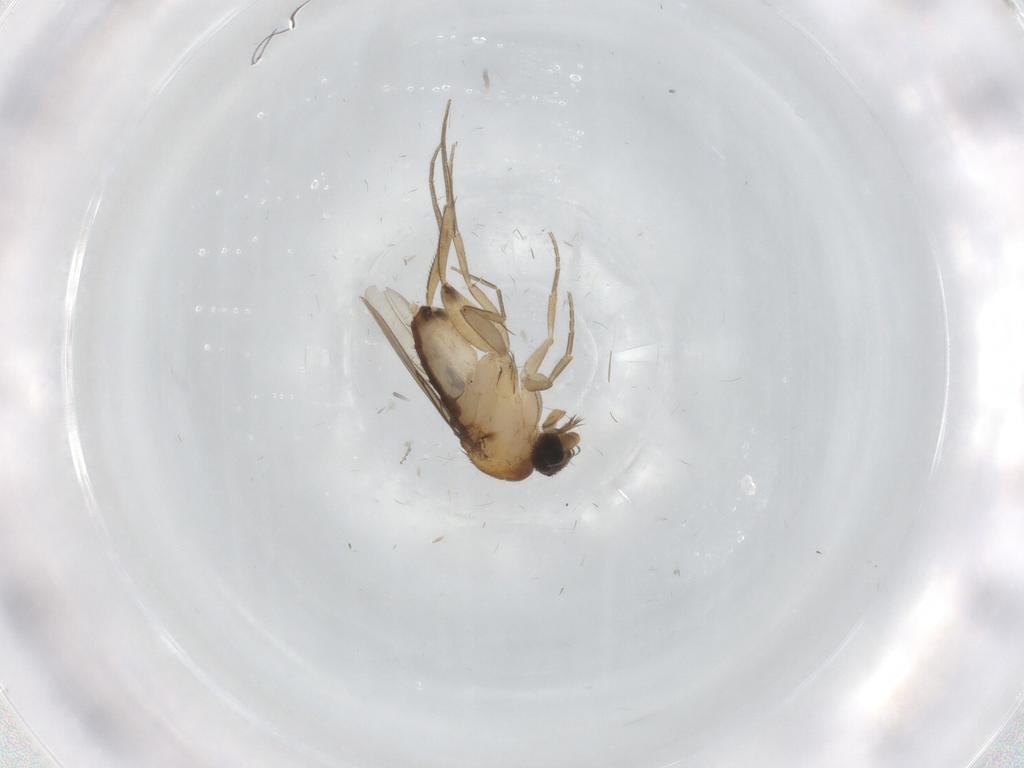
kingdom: Animalia
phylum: Arthropoda
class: Insecta
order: Diptera
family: Phoridae
